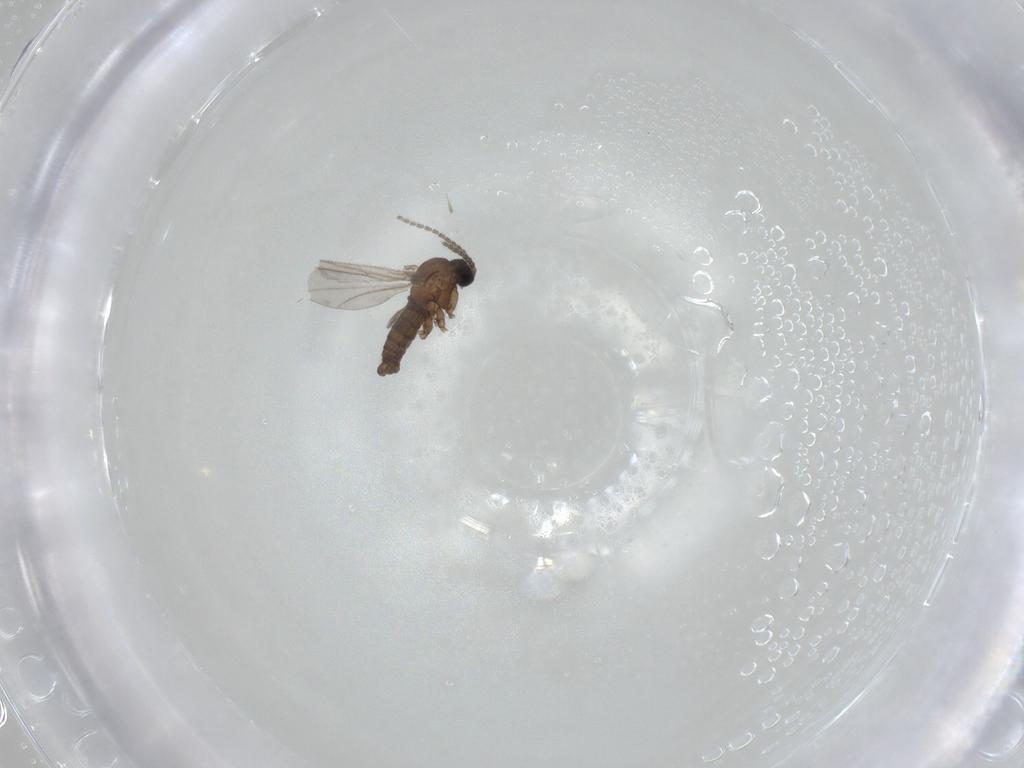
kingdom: Animalia
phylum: Arthropoda
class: Insecta
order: Diptera
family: Sciaridae
